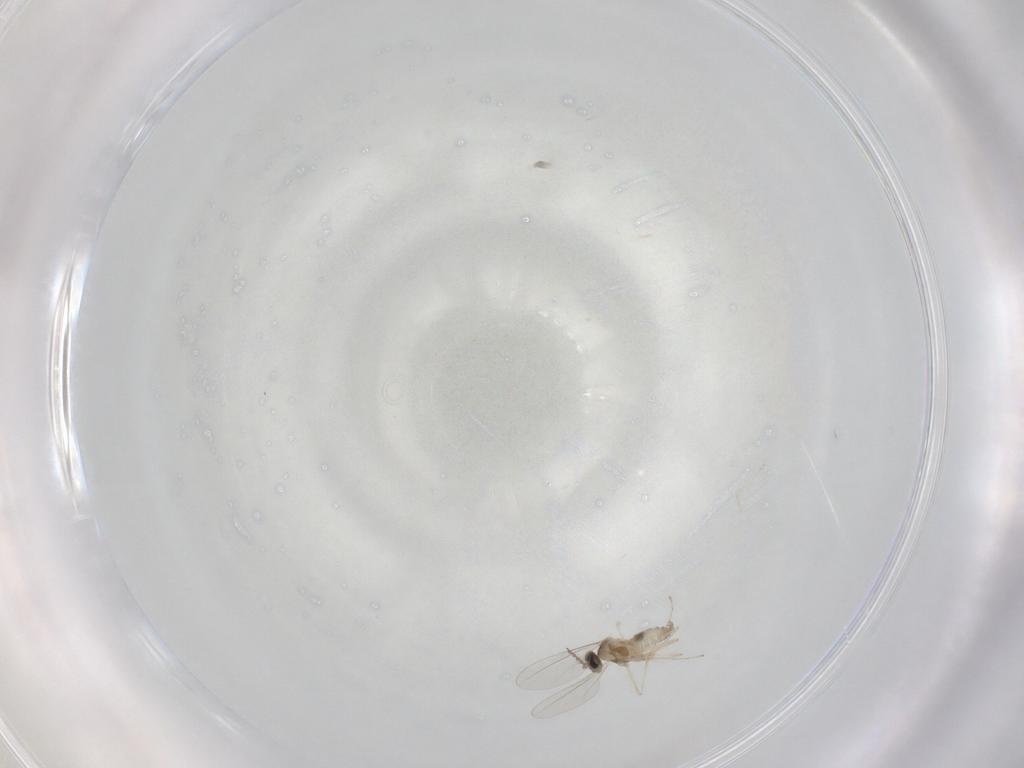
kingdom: Animalia
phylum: Arthropoda
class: Insecta
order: Diptera
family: Cecidomyiidae
